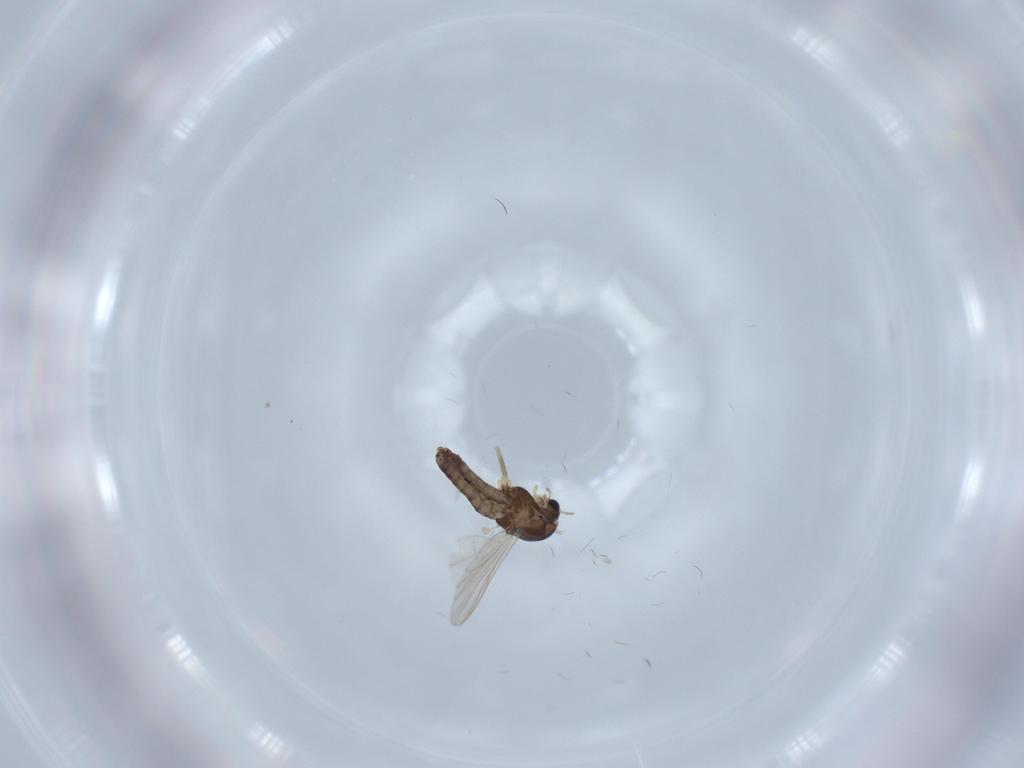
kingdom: Animalia
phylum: Arthropoda
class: Insecta
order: Diptera
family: Chironomidae
